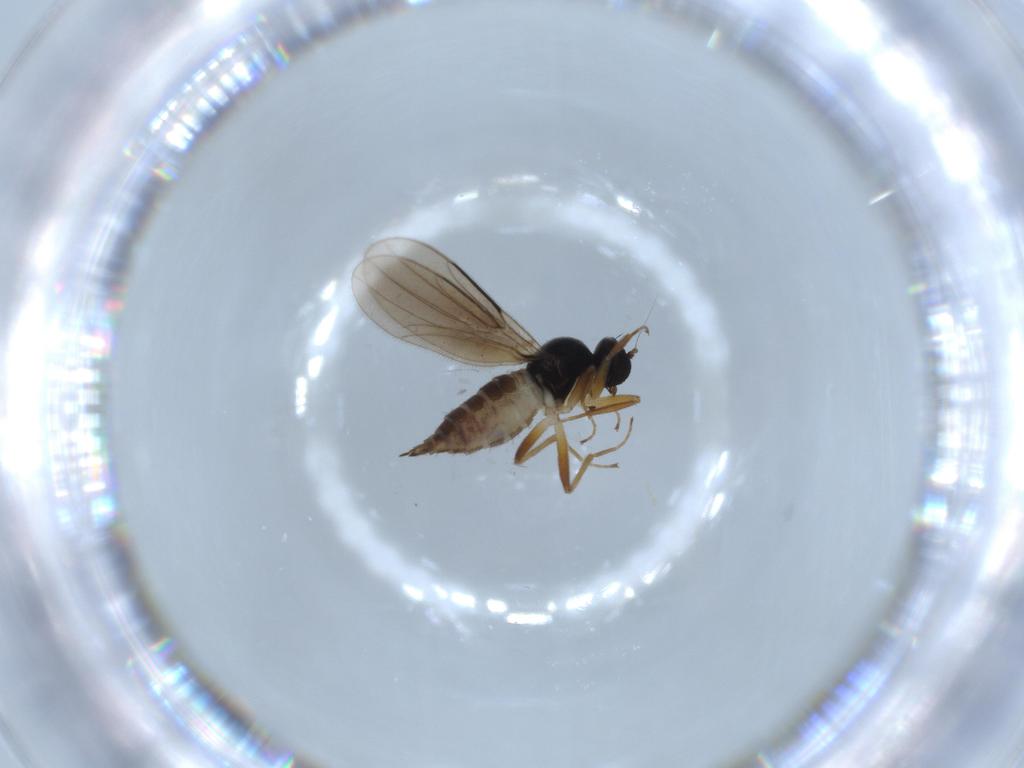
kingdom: Animalia
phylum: Arthropoda
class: Insecta
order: Diptera
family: Hybotidae
